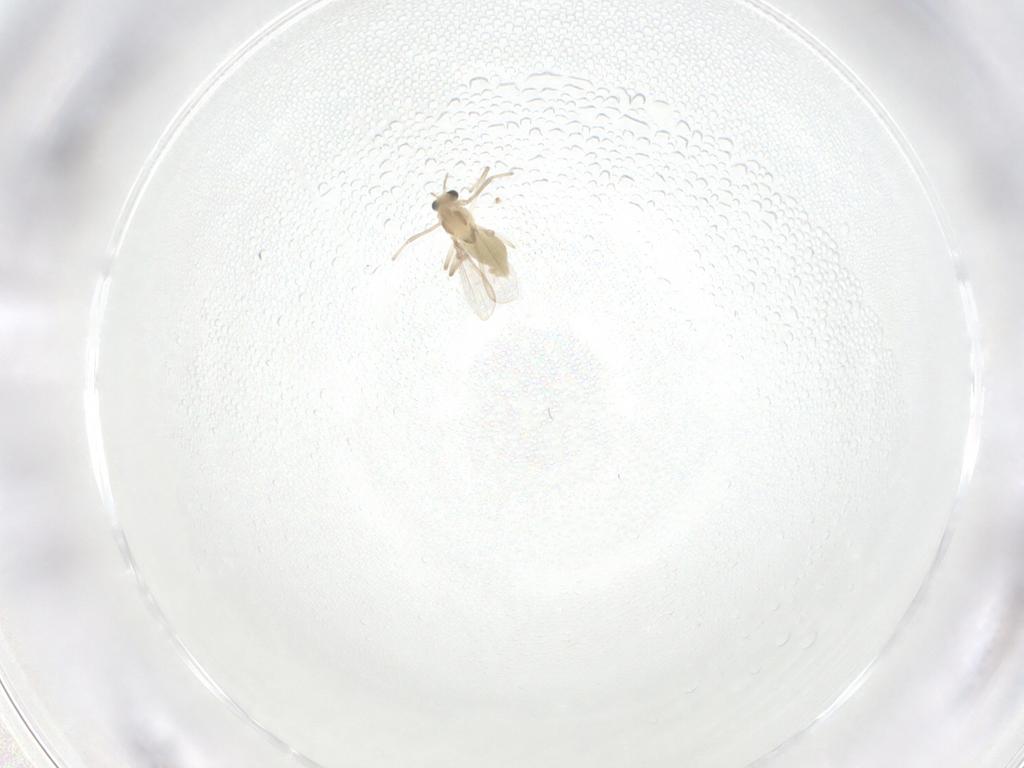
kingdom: Animalia
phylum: Arthropoda
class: Insecta
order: Diptera
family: Chironomidae
